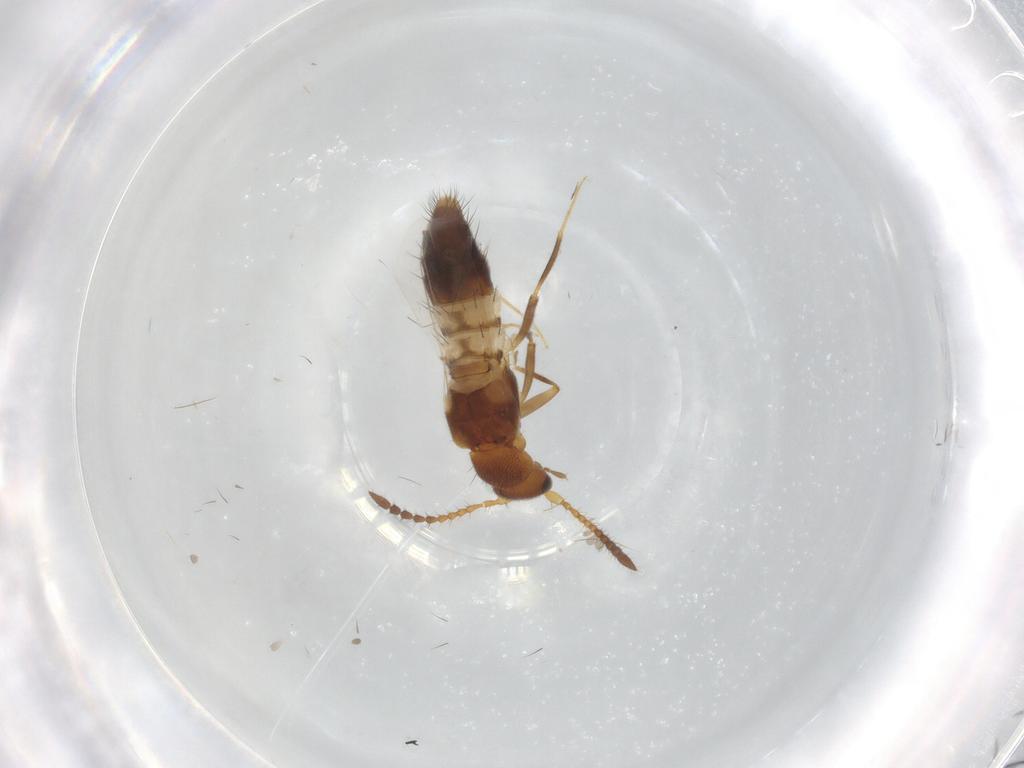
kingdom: Animalia
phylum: Arthropoda
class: Insecta
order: Coleoptera
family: Staphylinidae
